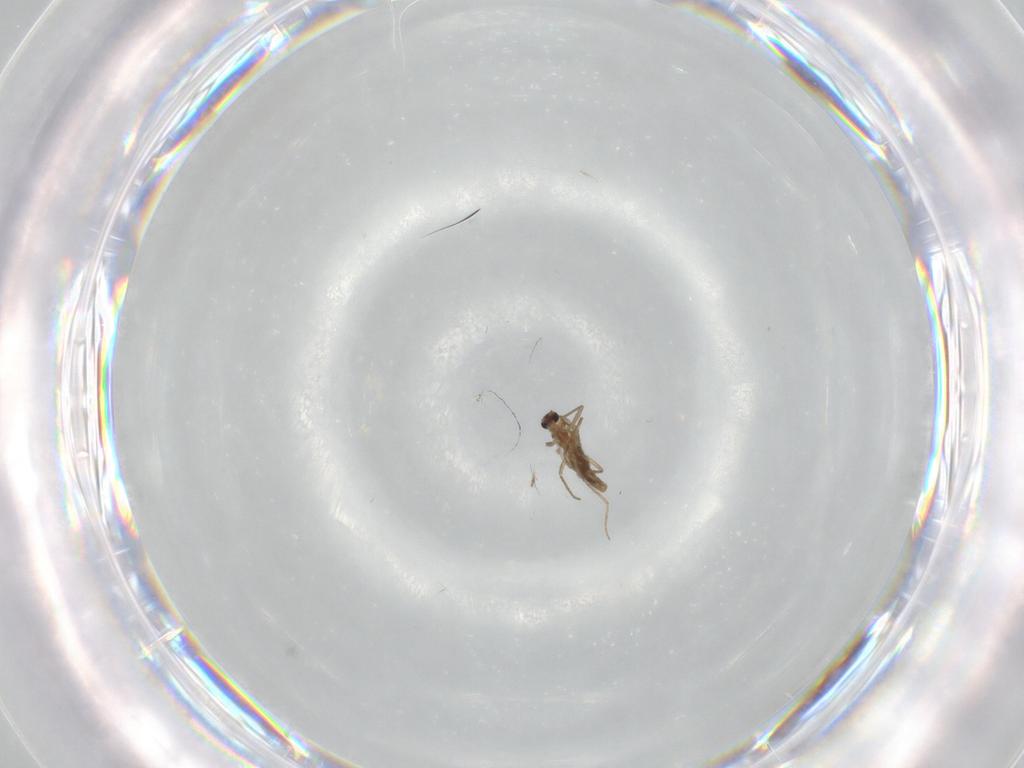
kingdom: Animalia
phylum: Arthropoda
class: Insecta
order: Diptera
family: Chironomidae
